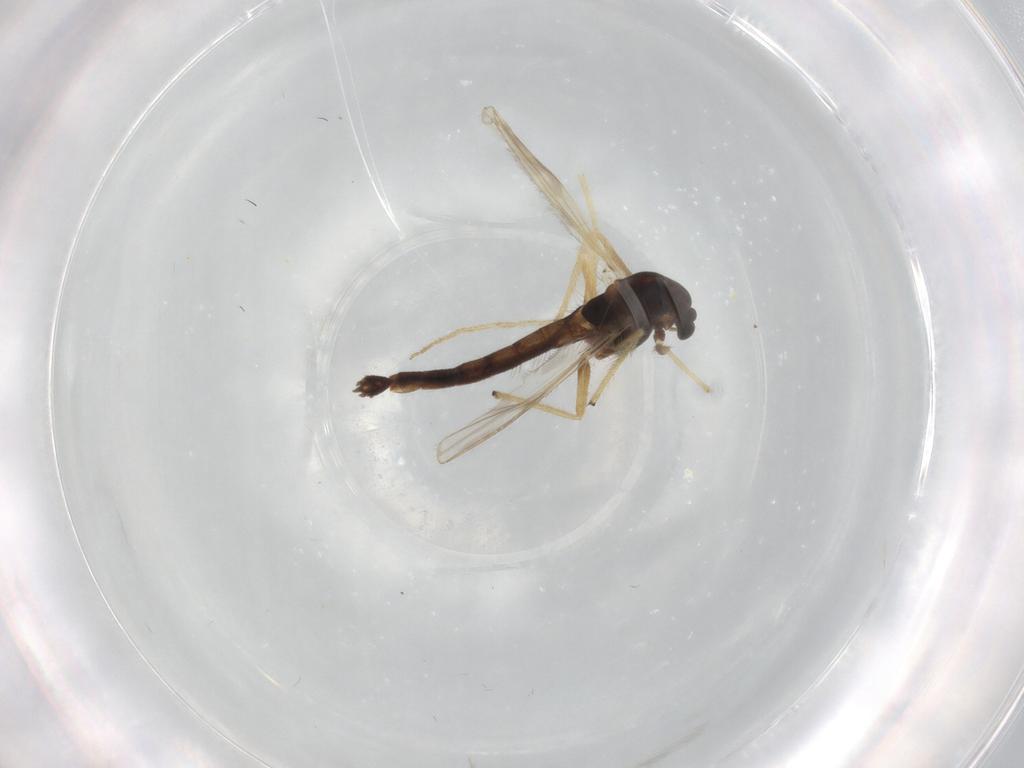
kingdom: Animalia
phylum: Arthropoda
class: Insecta
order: Diptera
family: Chironomidae
